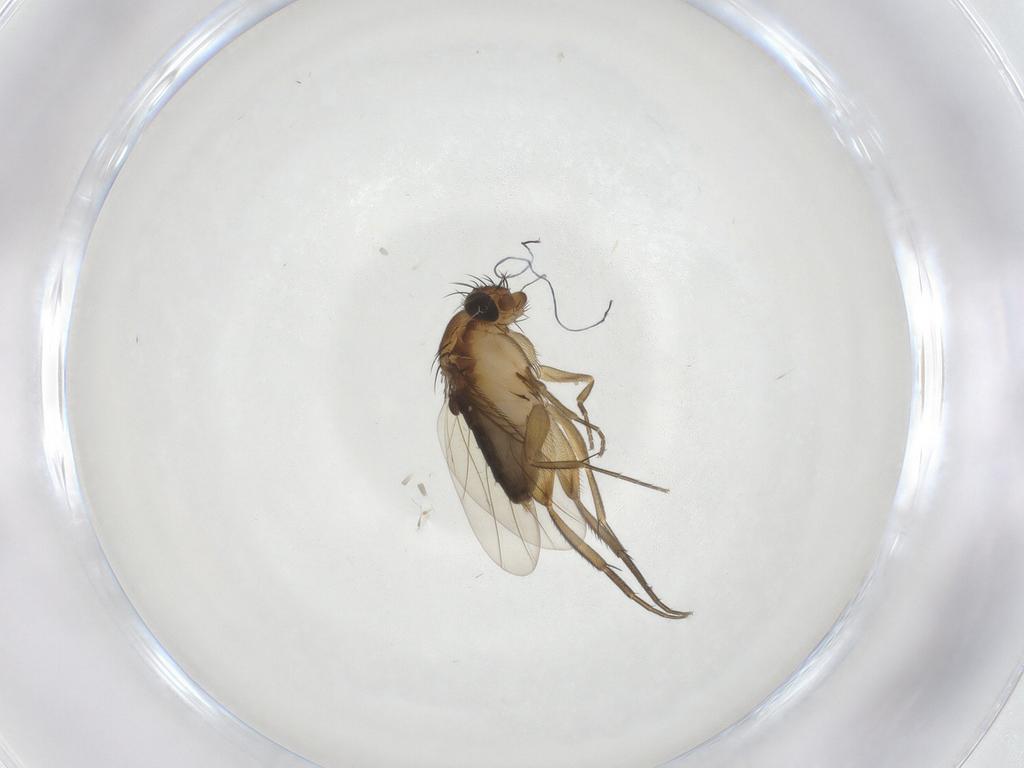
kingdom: Animalia
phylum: Arthropoda
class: Insecta
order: Diptera
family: Phoridae
